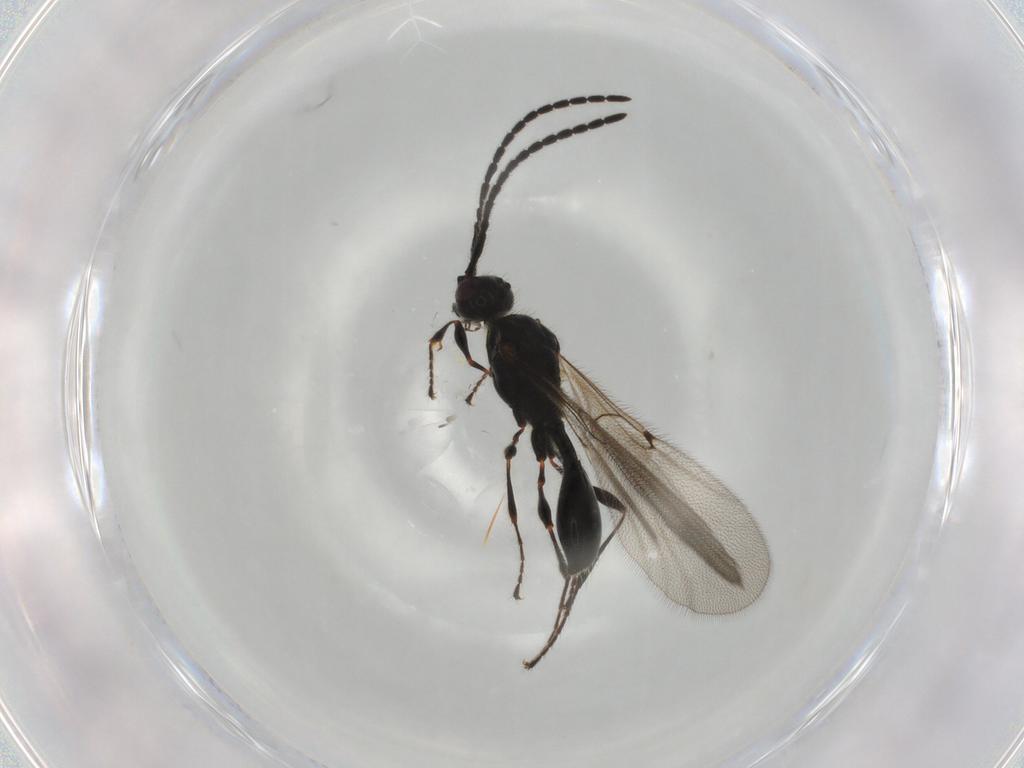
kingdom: Animalia
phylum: Arthropoda
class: Insecta
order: Hymenoptera
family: Diapriidae
